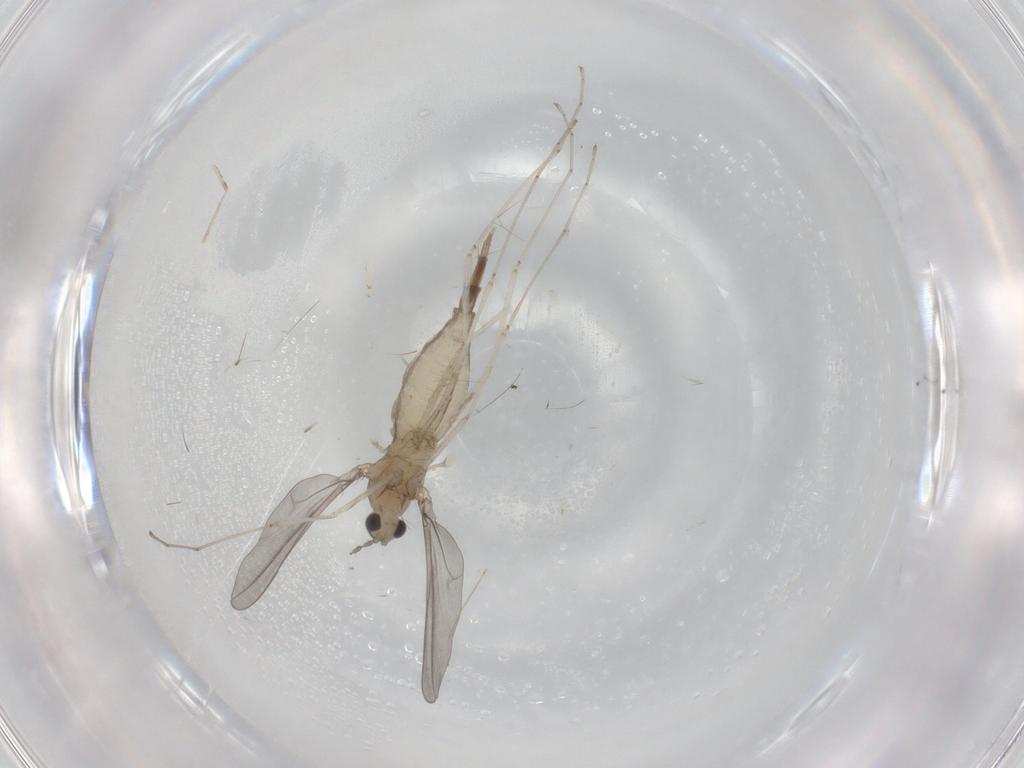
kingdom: Animalia
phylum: Arthropoda
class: Insecta
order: Diptera
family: Cecidomyiidae
